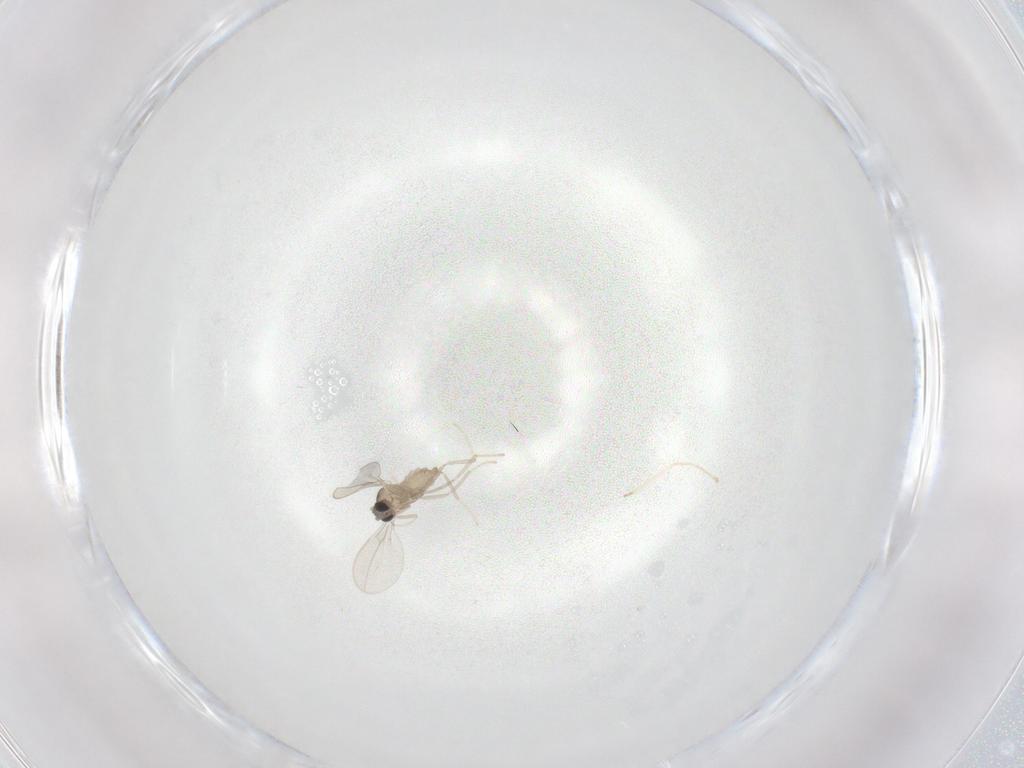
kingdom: Animalia
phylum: Arthropoda
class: Insecta
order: Diptera
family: Cecidomyiidae
